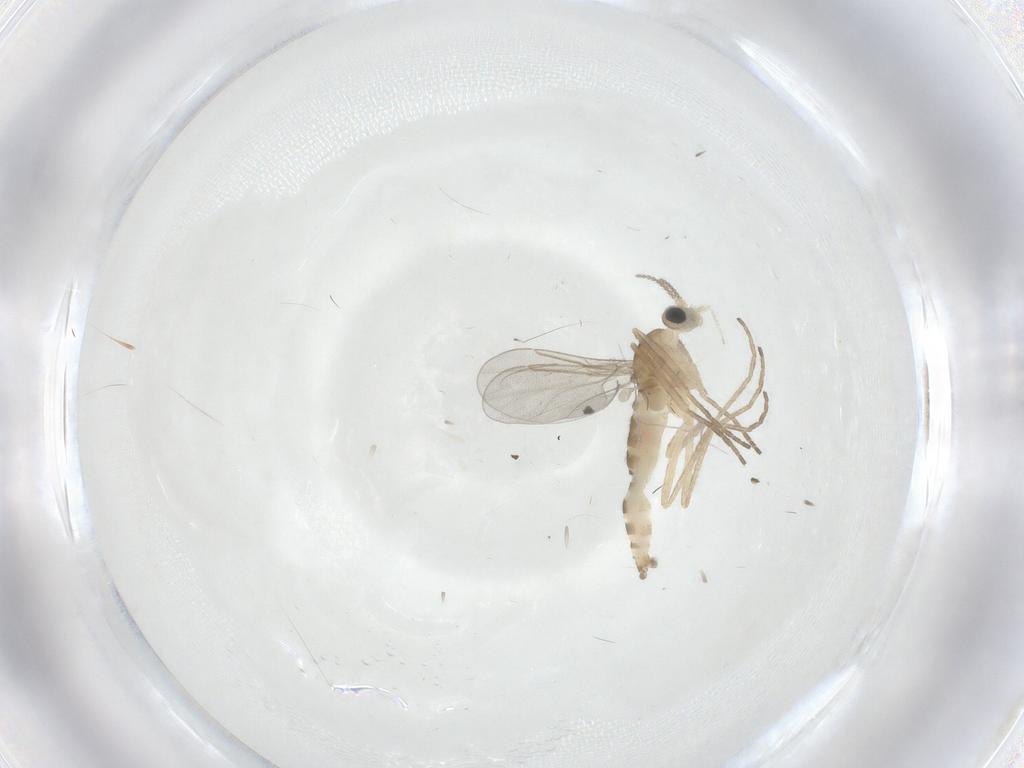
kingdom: Animalia
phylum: Arthropoda
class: Insecta
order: Diptera
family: Cecidomyiidae
